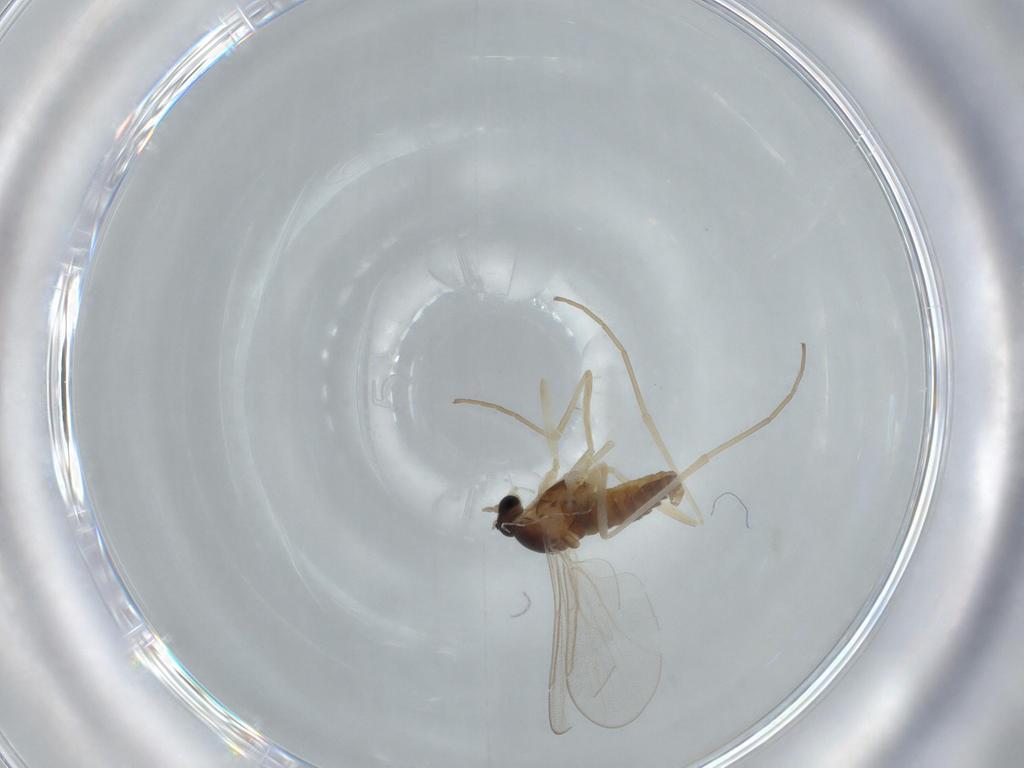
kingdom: Animalia
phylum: Arthropoda
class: Insecta
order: Diptera
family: Cecidomyiidae
